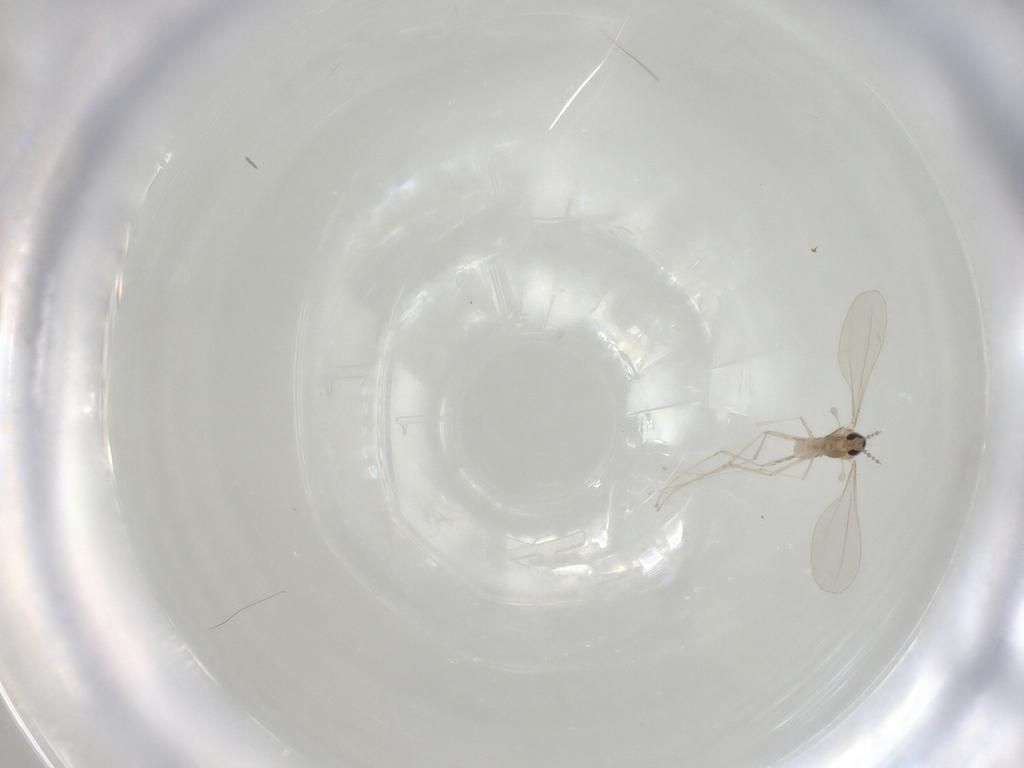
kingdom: Animalia
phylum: Arthropoda
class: Insecta
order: Diptera
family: Cecidomyiidae
